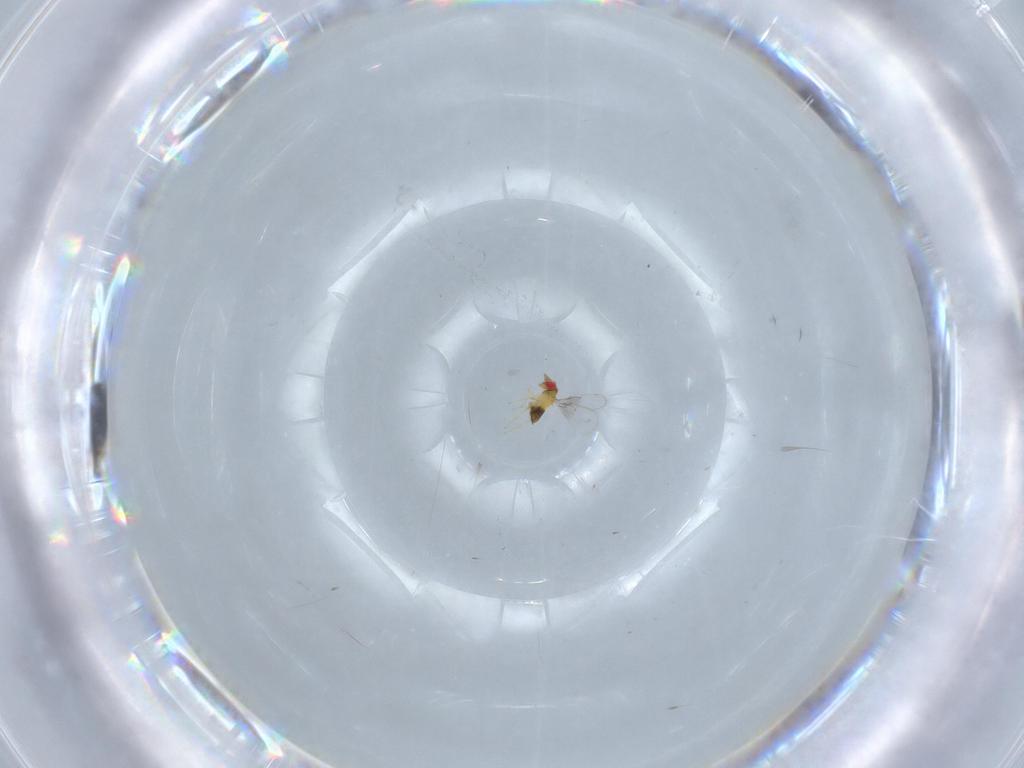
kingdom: Animalia
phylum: Arthropoda
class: Insecta
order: Hymenoptera
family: Trichogrammatidae
